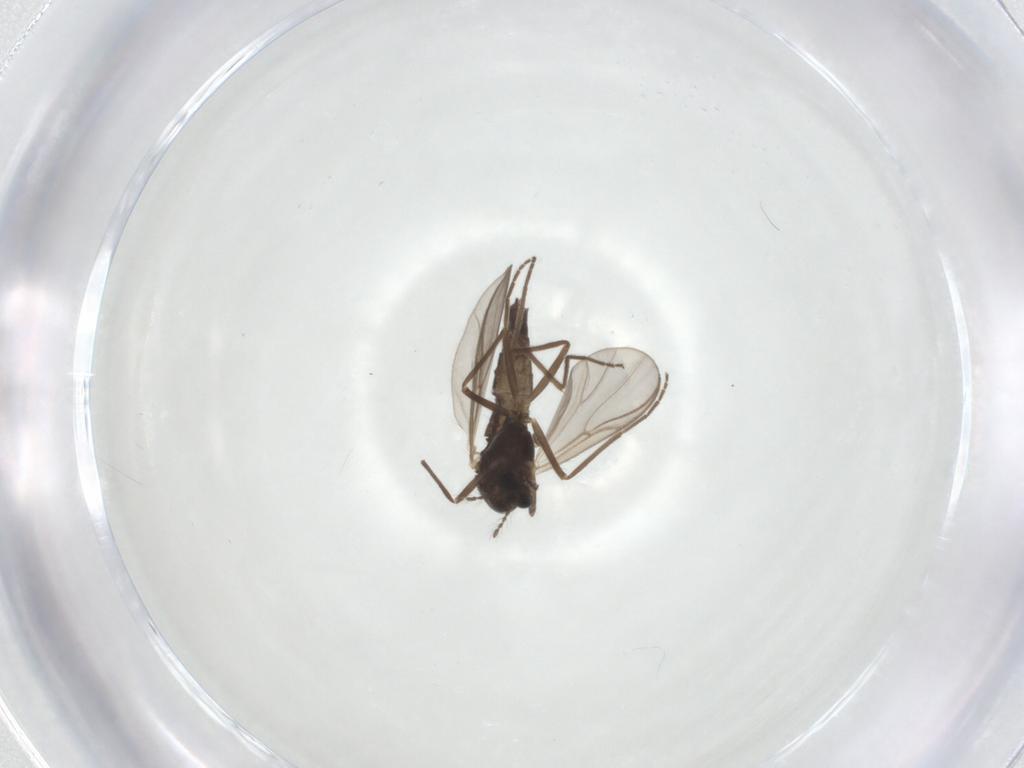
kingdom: Animalia
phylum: Arthropoda
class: Insecta
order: Diptera
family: Chironomidae
